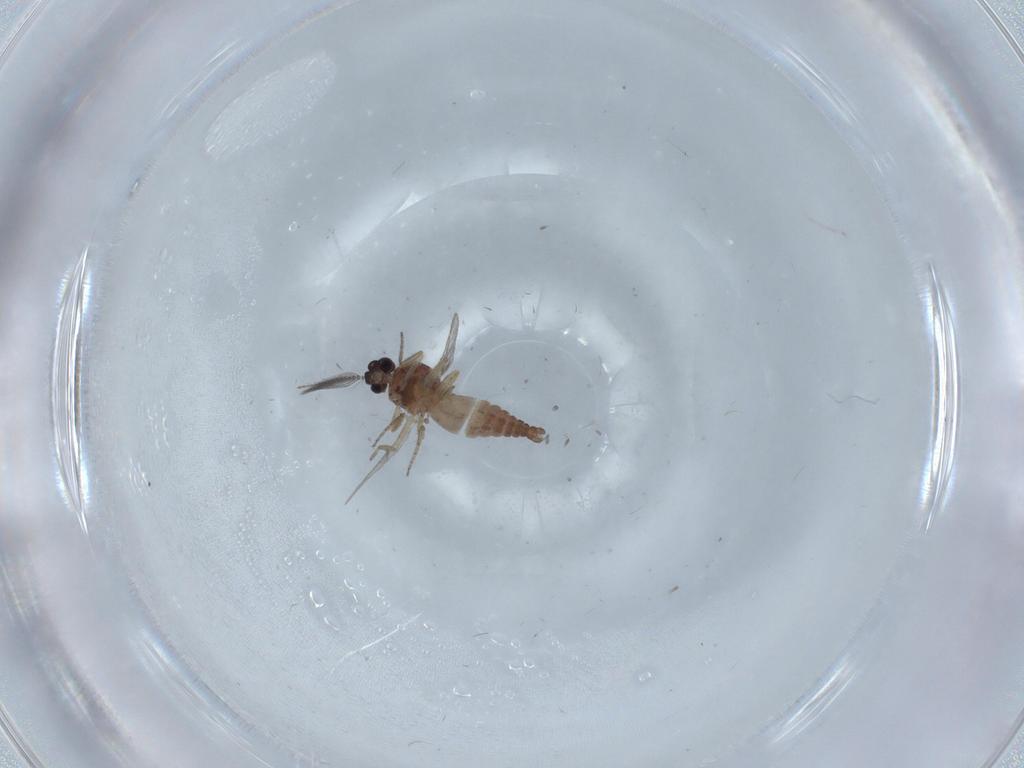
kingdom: Animalia
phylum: Arthropoda
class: Insecta
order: Diptera
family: Ceratopogonidae
